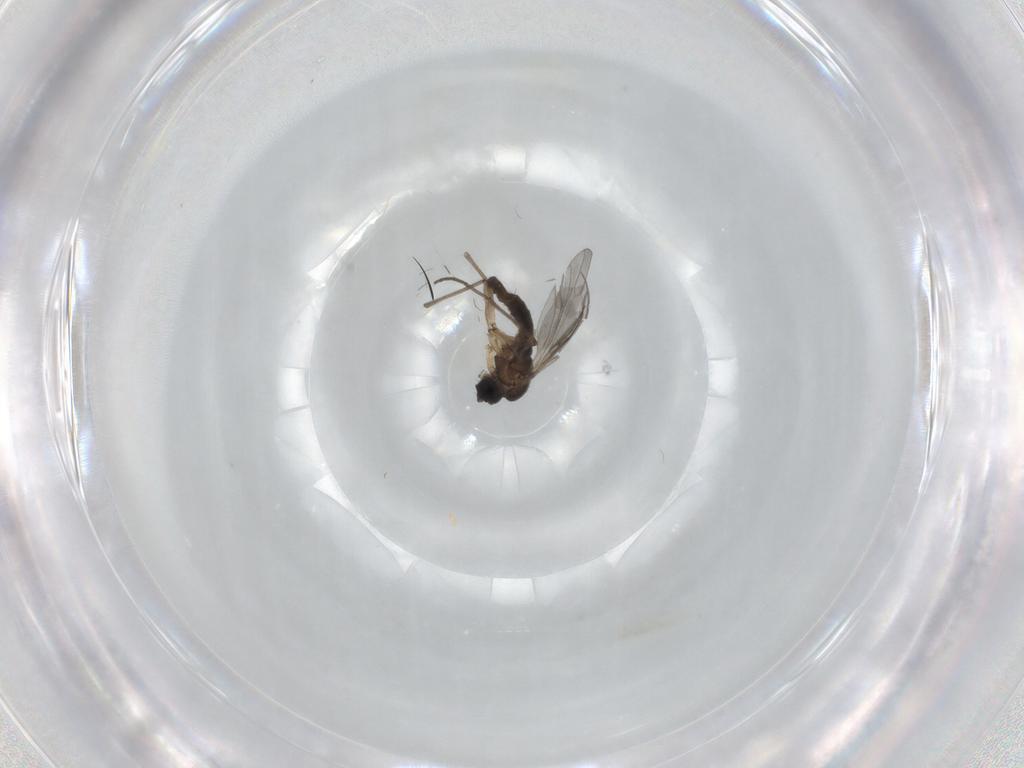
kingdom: Animalia
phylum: Arthropoda
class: Insecta
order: Diptera
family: Sciaridae
